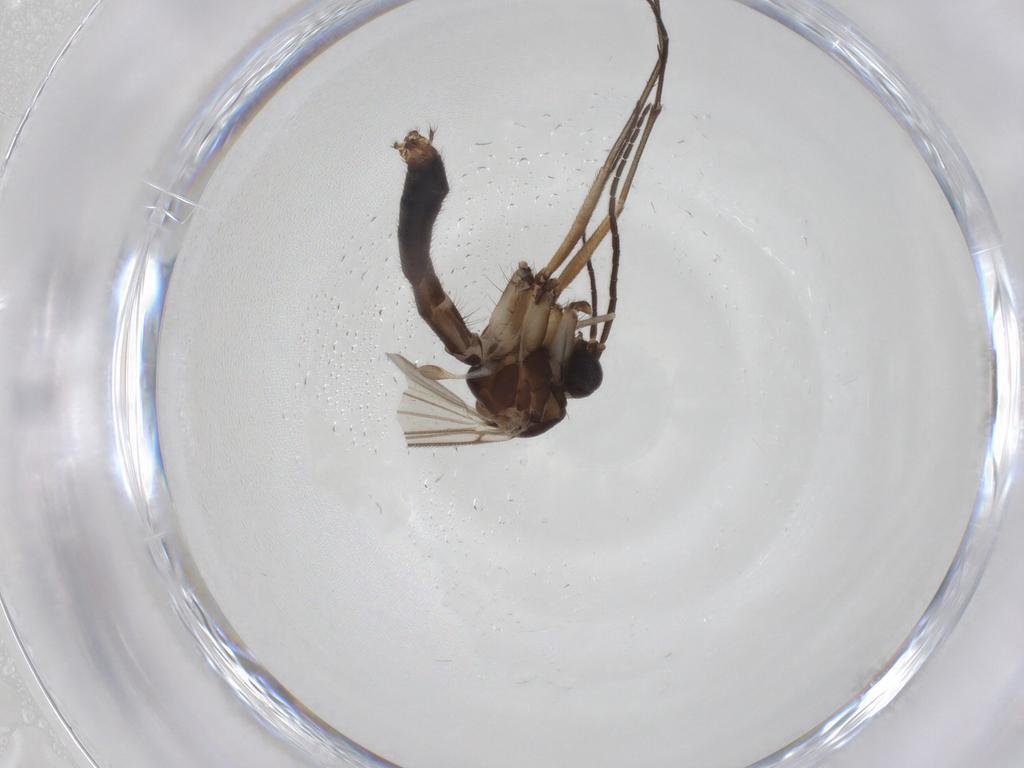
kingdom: Animalia
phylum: Arthropoda
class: Insecta
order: Diptera
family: Mycetophilidae
